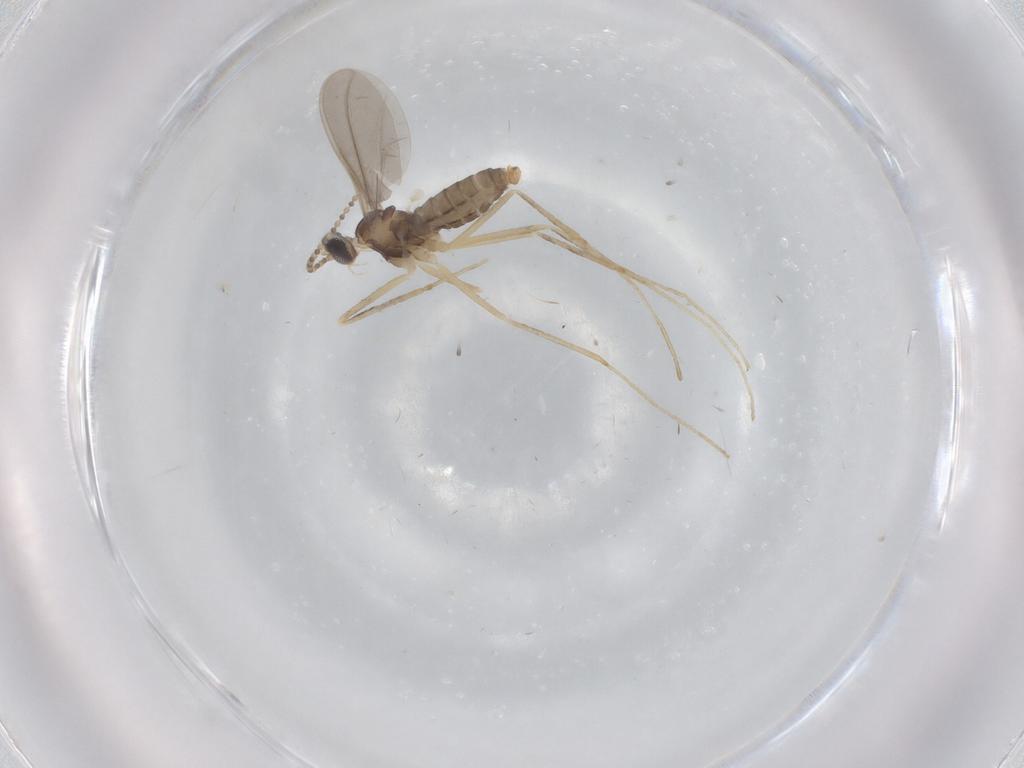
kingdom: Animalia
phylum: Arthropoda
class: Insecta
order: Diptera
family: Cecidomyiidae
